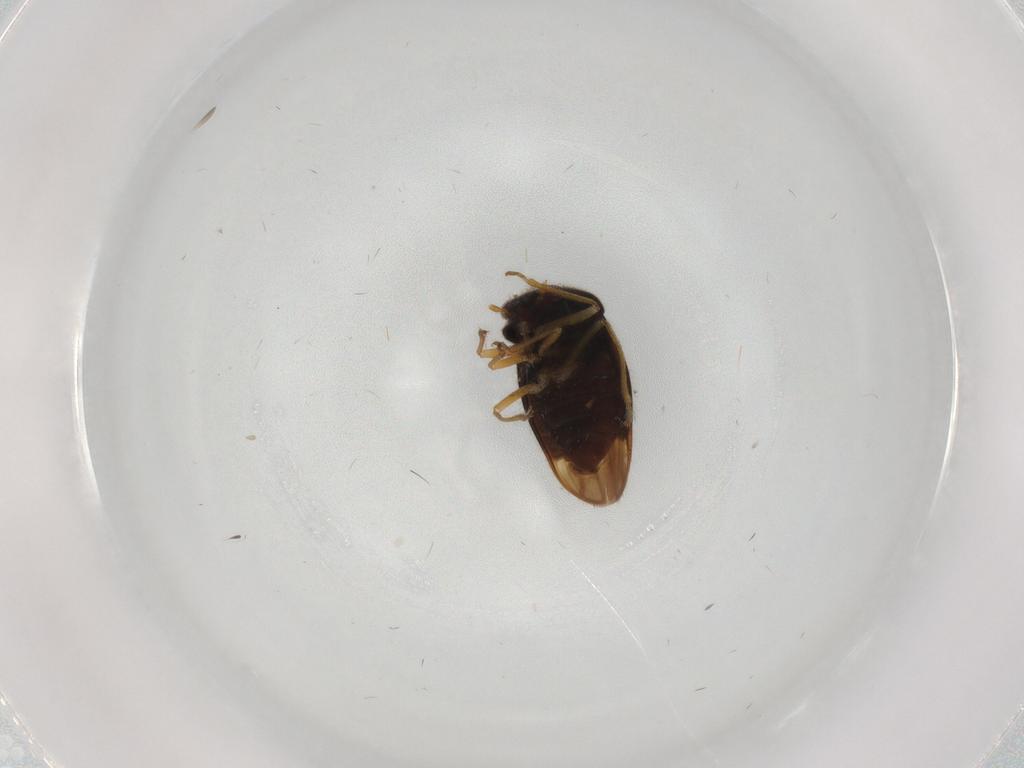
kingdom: Animalia
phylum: Arthropoda
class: Insecta
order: Hemiptera
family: Schizopteridae
